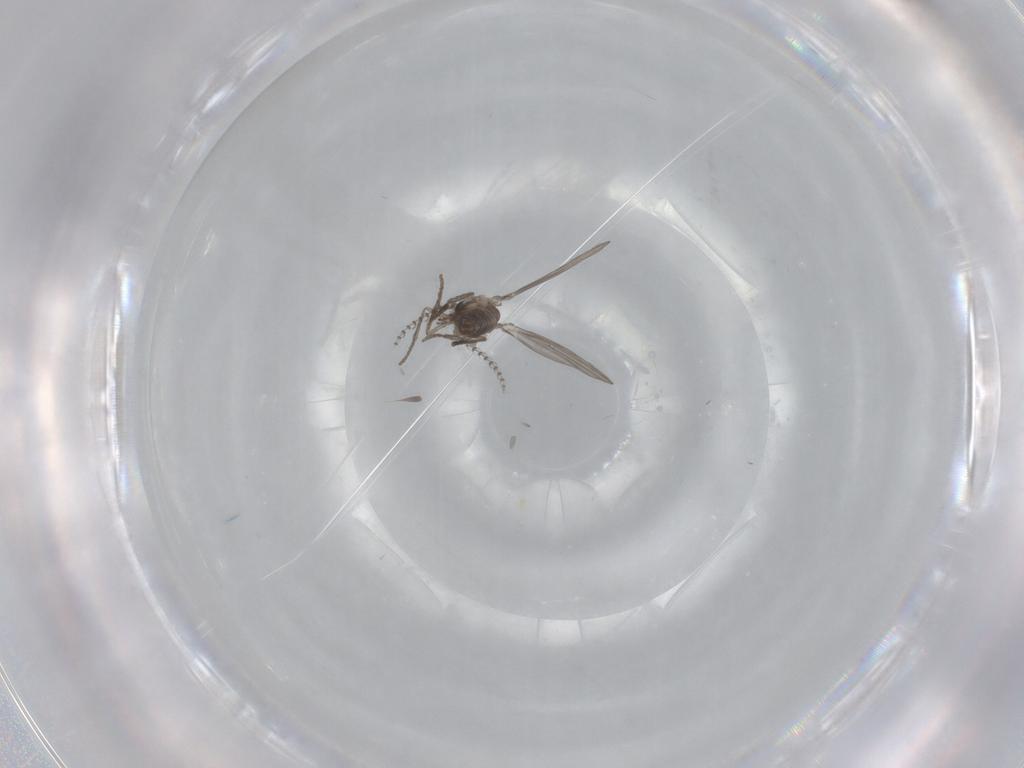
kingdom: Animalia
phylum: Arthropoda
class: Insecta
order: Diptera
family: Psychodidae
